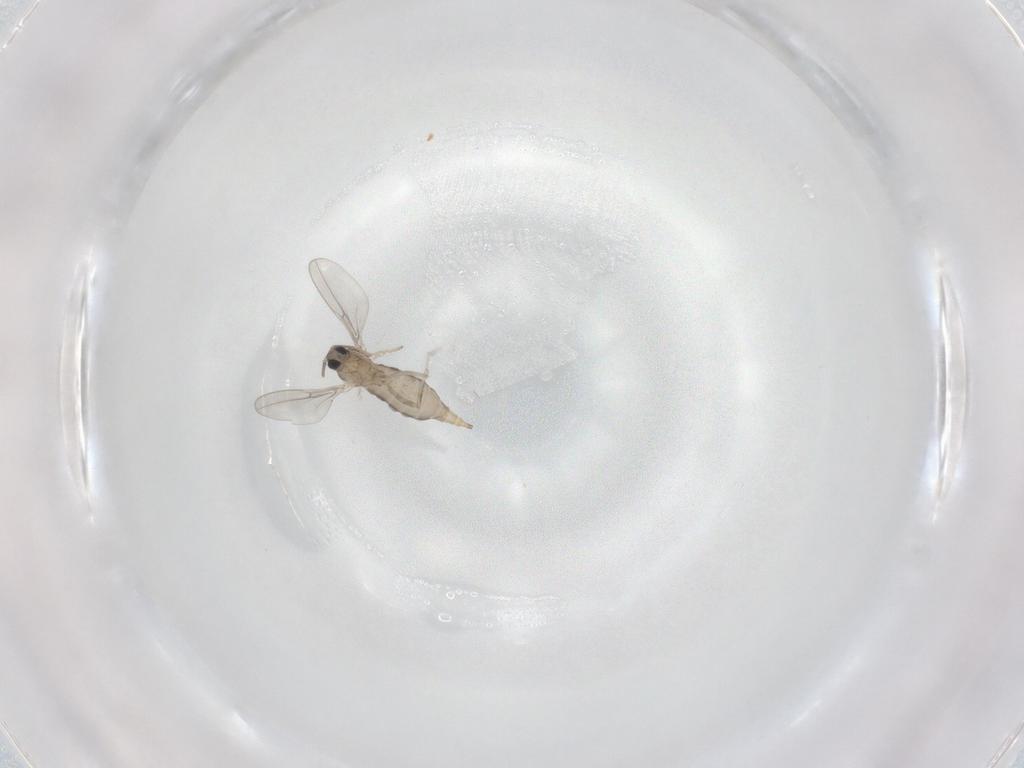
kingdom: Animalia
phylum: Arthropoda
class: Insecta
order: Diptera
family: Cecidomyiidae
